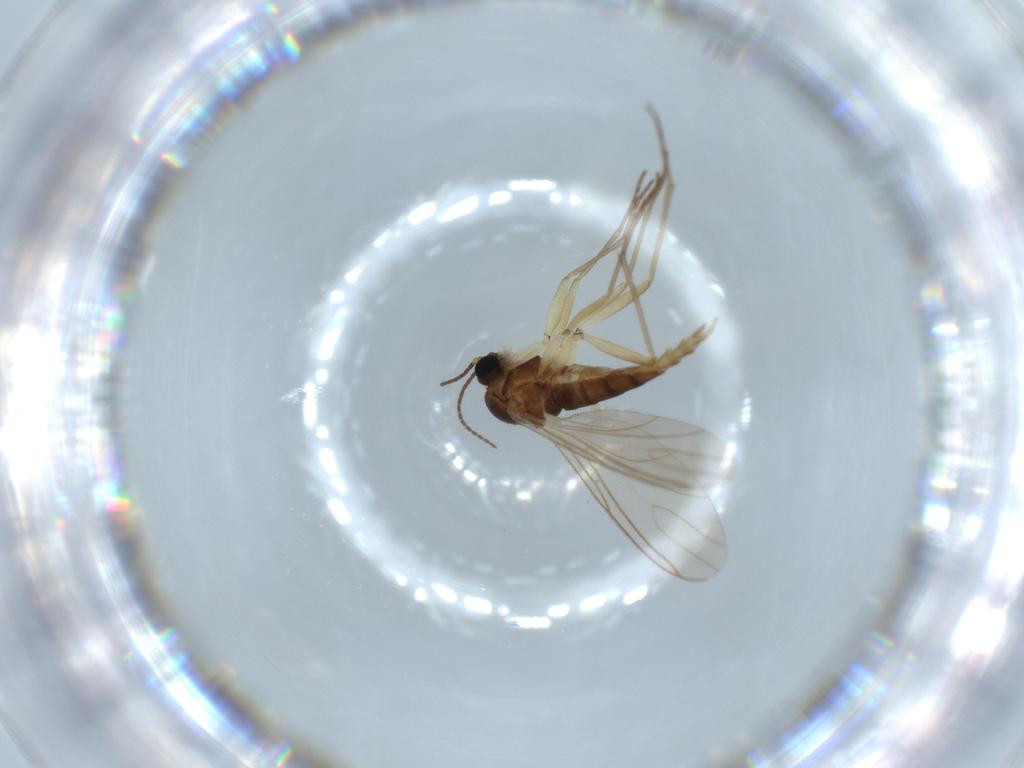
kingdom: Animalia
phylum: Arthropoda
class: Insecta
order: Diptera
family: Sciaridae
